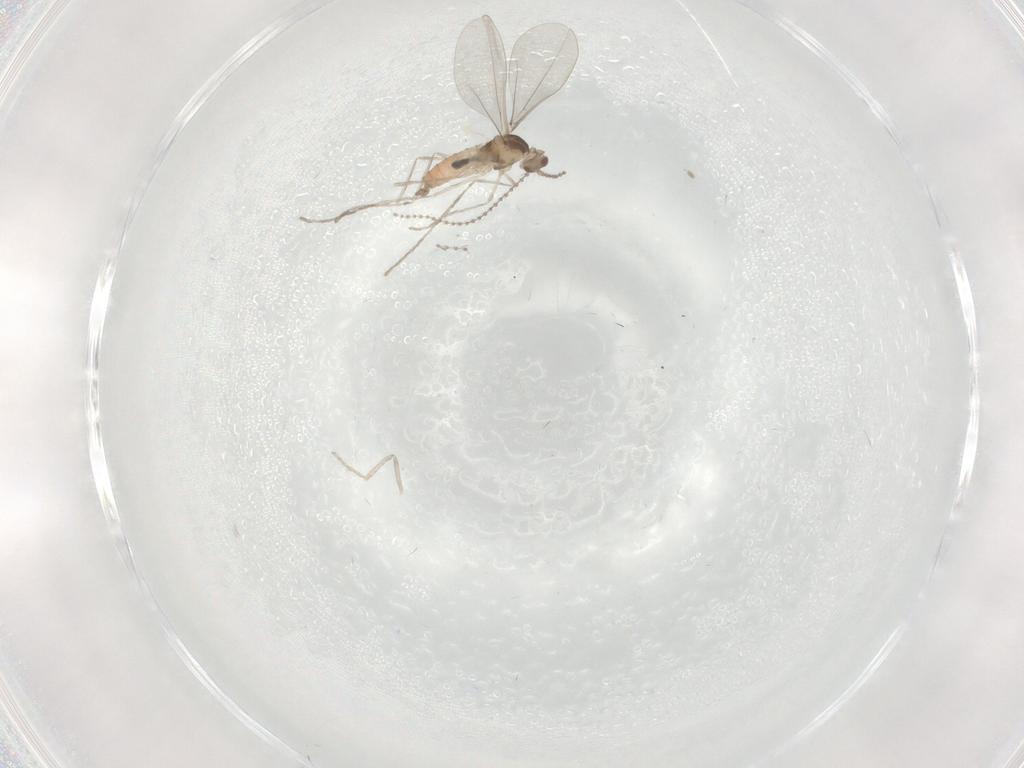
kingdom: Animalia
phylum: Arthropoda
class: Insecta
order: Diptera
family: Cecidomyiidae
